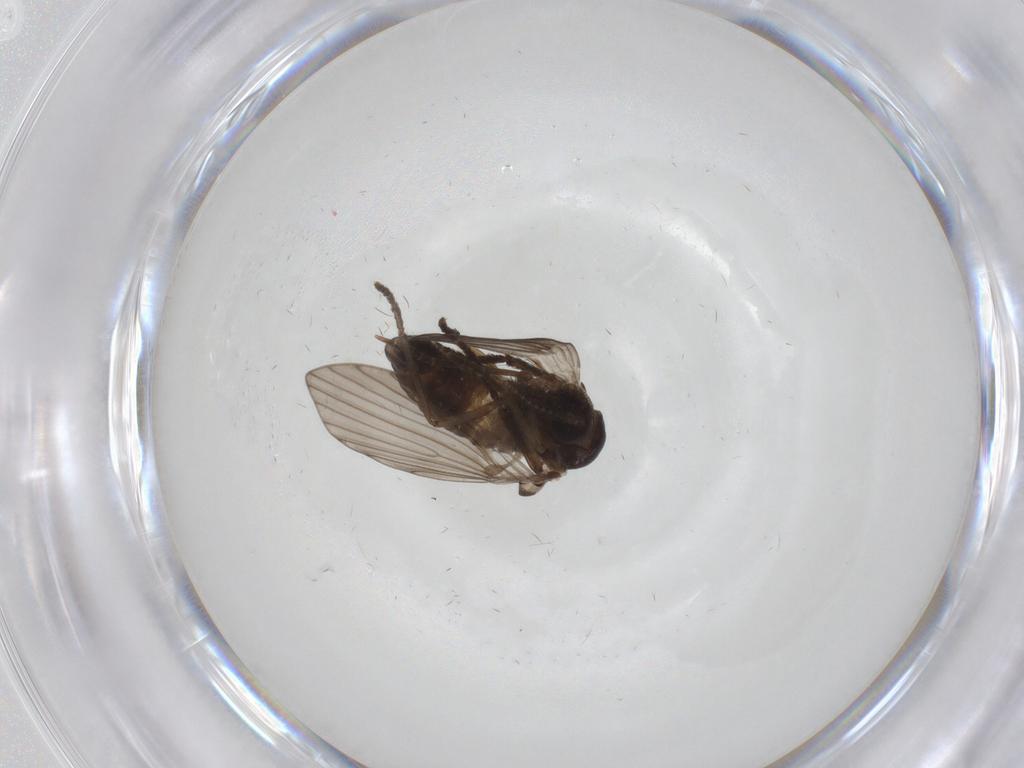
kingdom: Animalia
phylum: Arthropoda
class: Insecta
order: Diptera
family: Psychodidae
